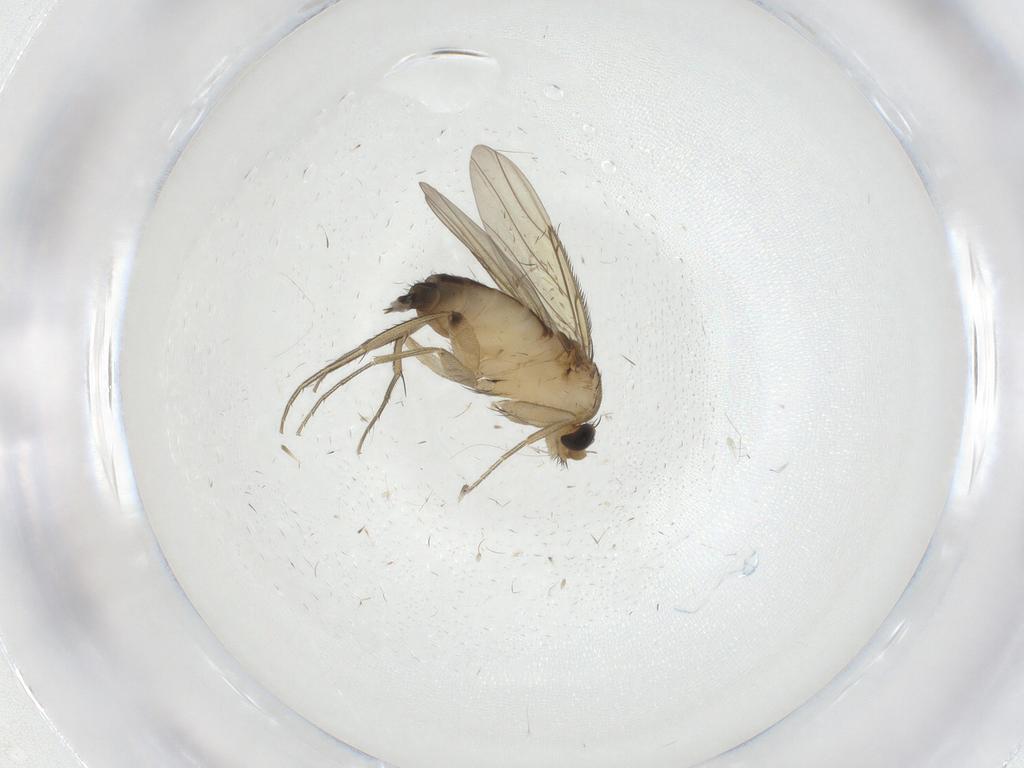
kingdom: Animalia
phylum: Arthropoda
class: Insecta
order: Diptera
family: Phoridae
